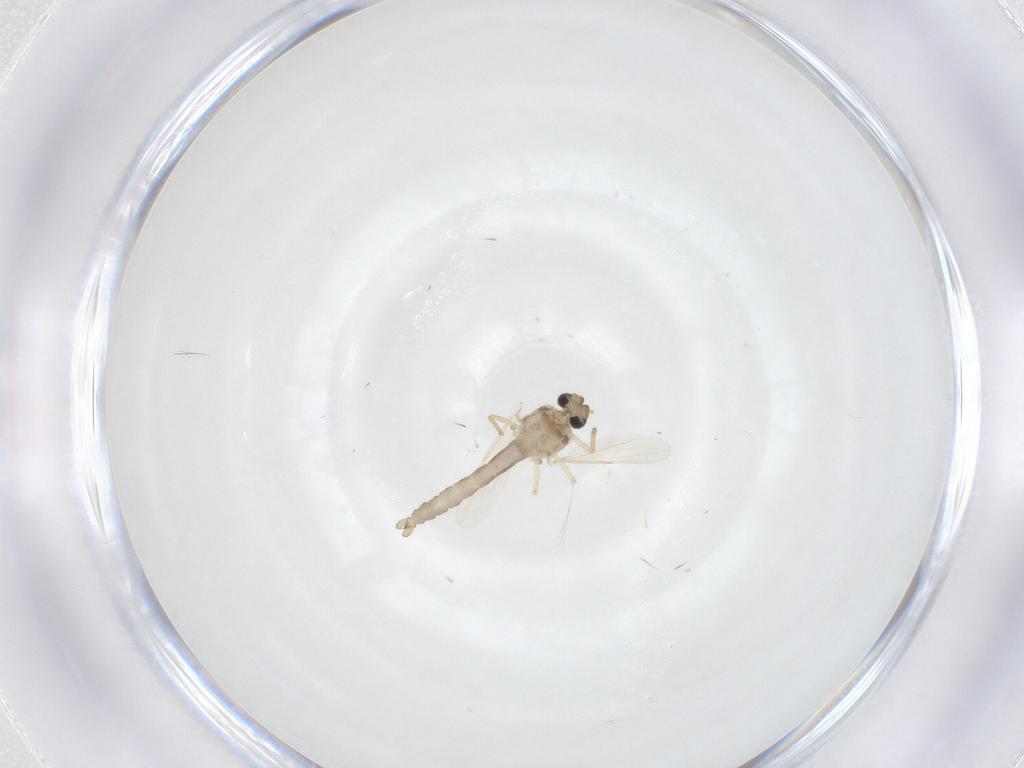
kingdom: Animalia
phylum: Arthropoda
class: Insecta
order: Diptera
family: Ceratopogonidae
